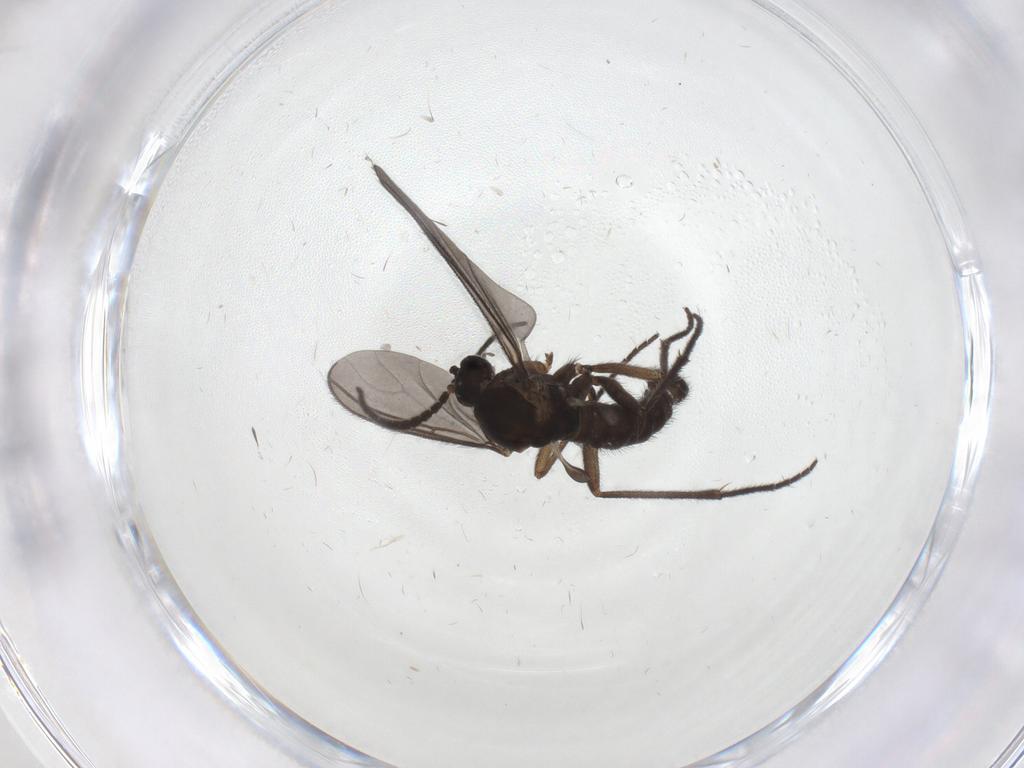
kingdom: Animalia
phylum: Arthropoda
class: Insecta
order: Diptera
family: Sciaridae
